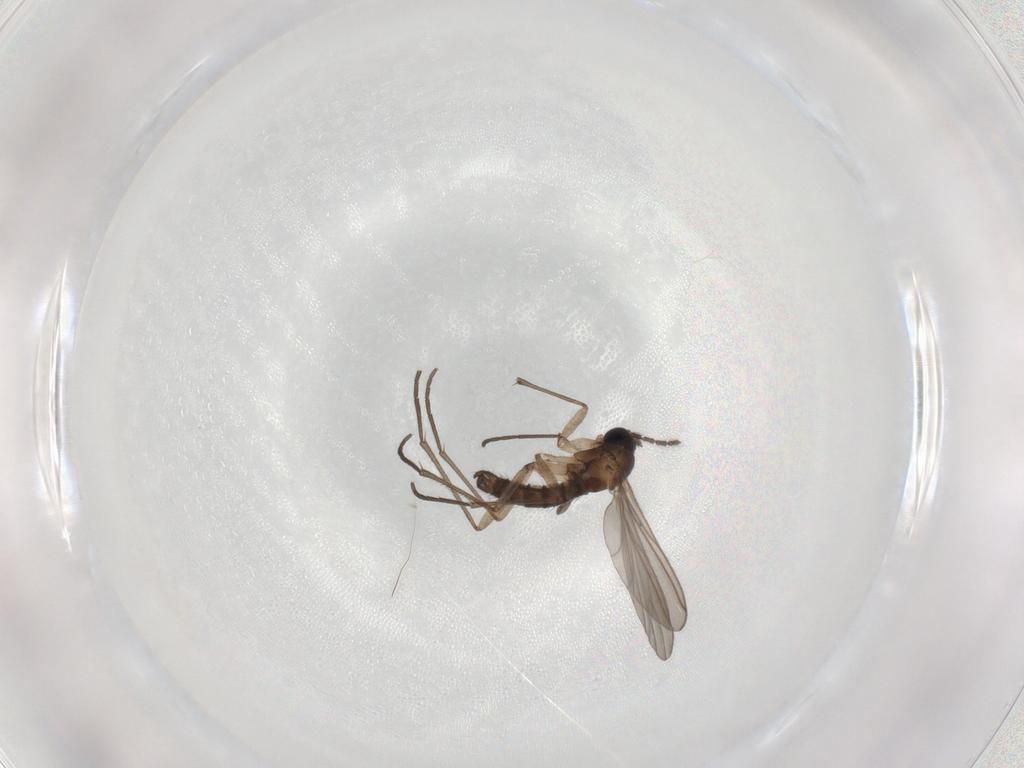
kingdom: Animalia
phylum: Arthropoda
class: Insecta
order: Diptera
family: Sciaridae
